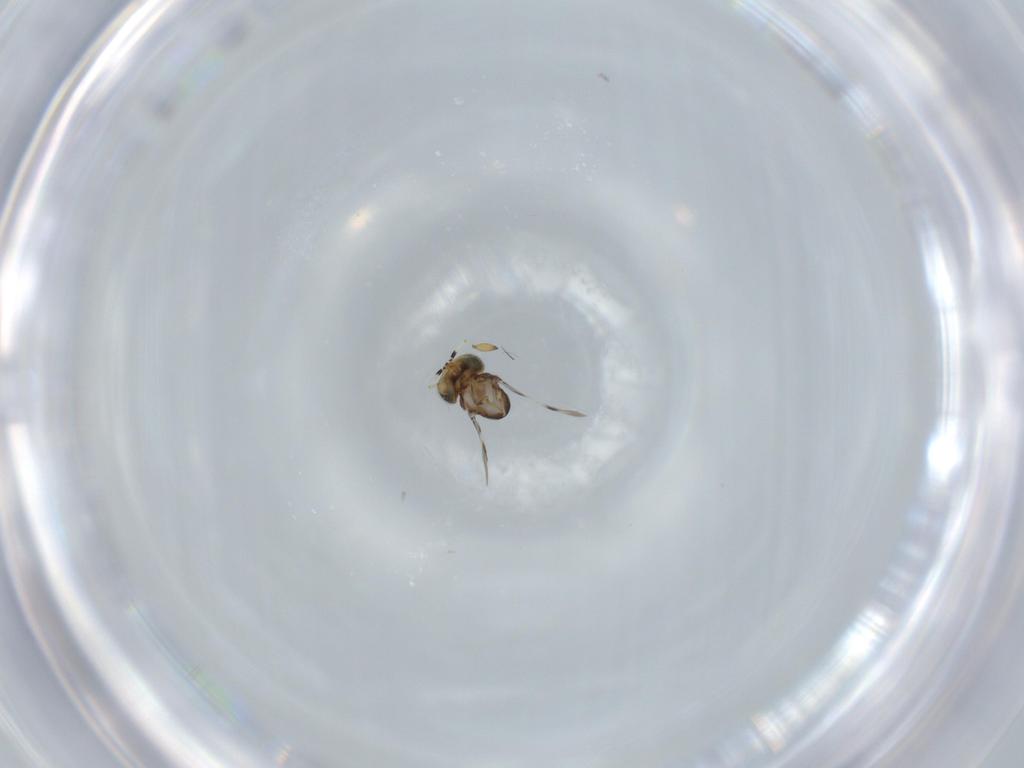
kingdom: Animalia
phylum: Arthropoda
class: Insecta
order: Hymenoptera
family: Scelionidae
